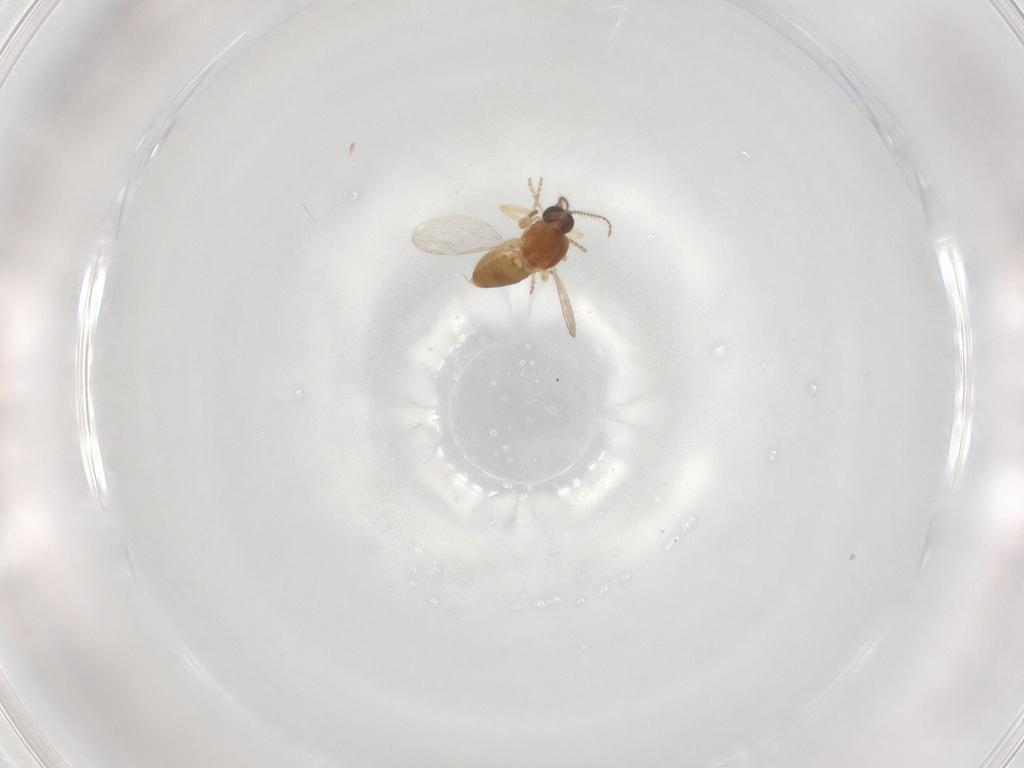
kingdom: Animalia
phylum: Arthropoda
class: Insecta
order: Diptera
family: Ceratopogonidae
